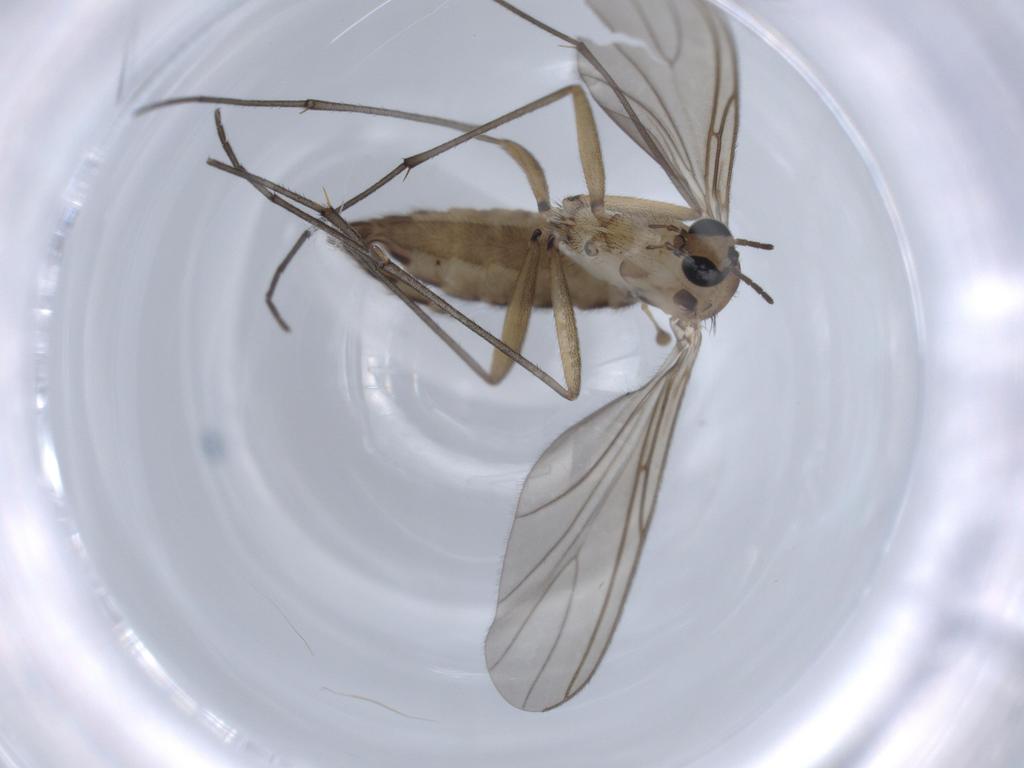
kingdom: Animalia
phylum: Arthropoda
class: Insecta
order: Diptera
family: Sciaridae
